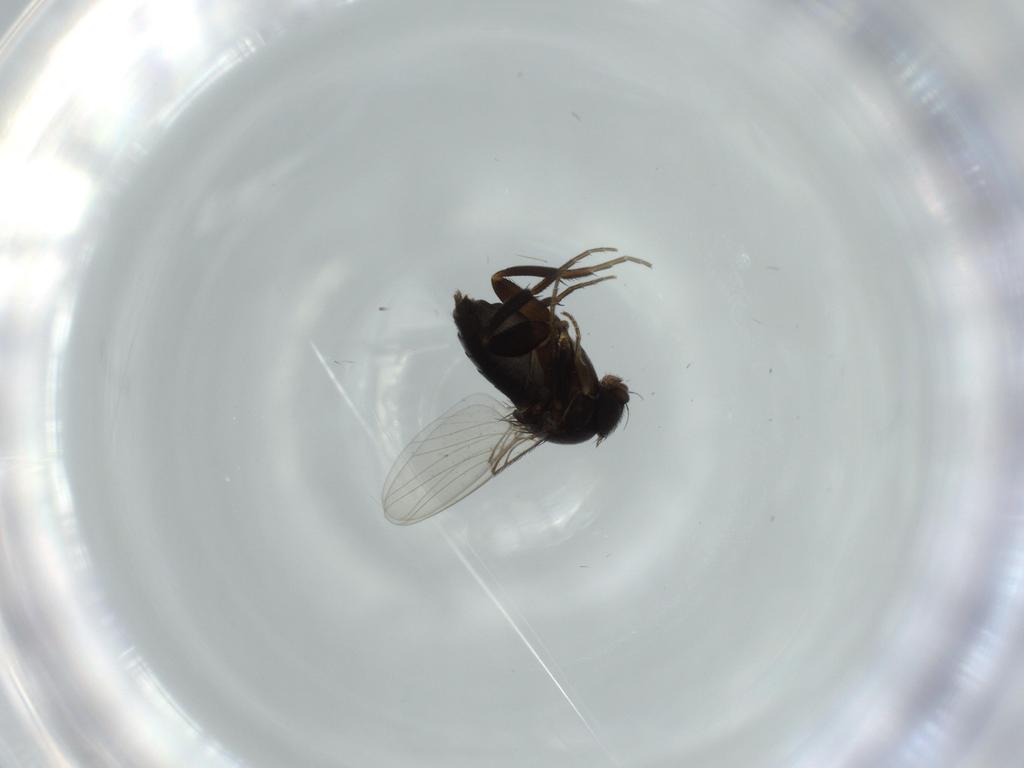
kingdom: Animalia
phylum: Arthropoda
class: Insecta
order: Diptera
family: Phoridae
